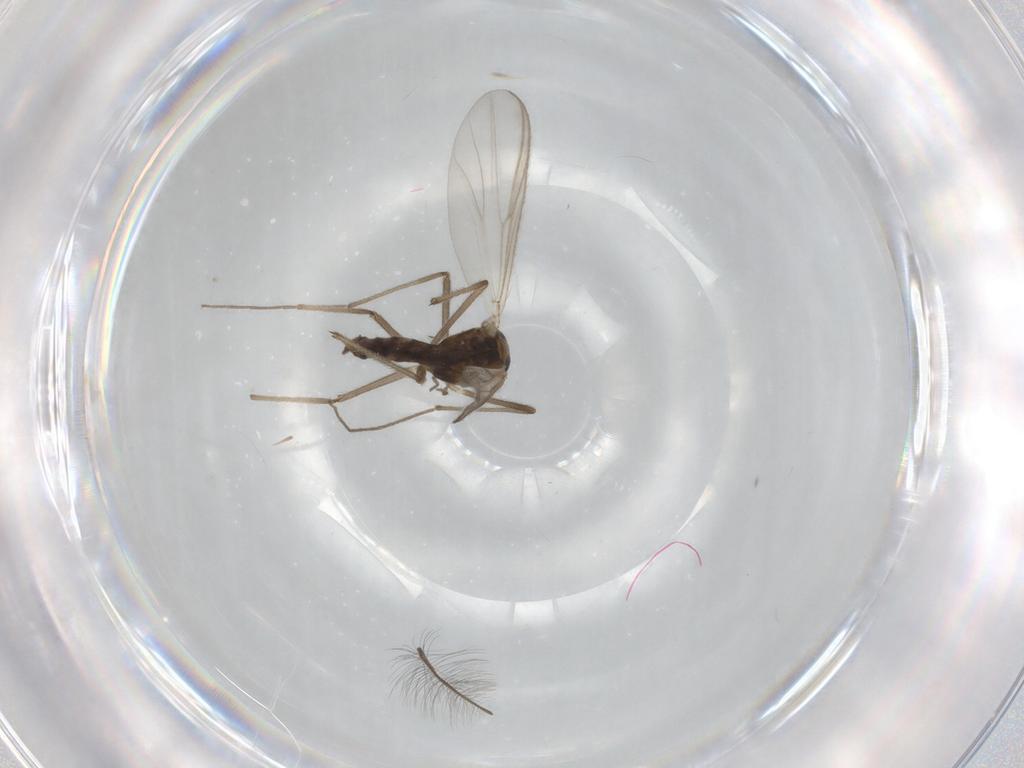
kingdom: Animalia
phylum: Arthropoda
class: Insecta
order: Diptera
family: Chironomidae
